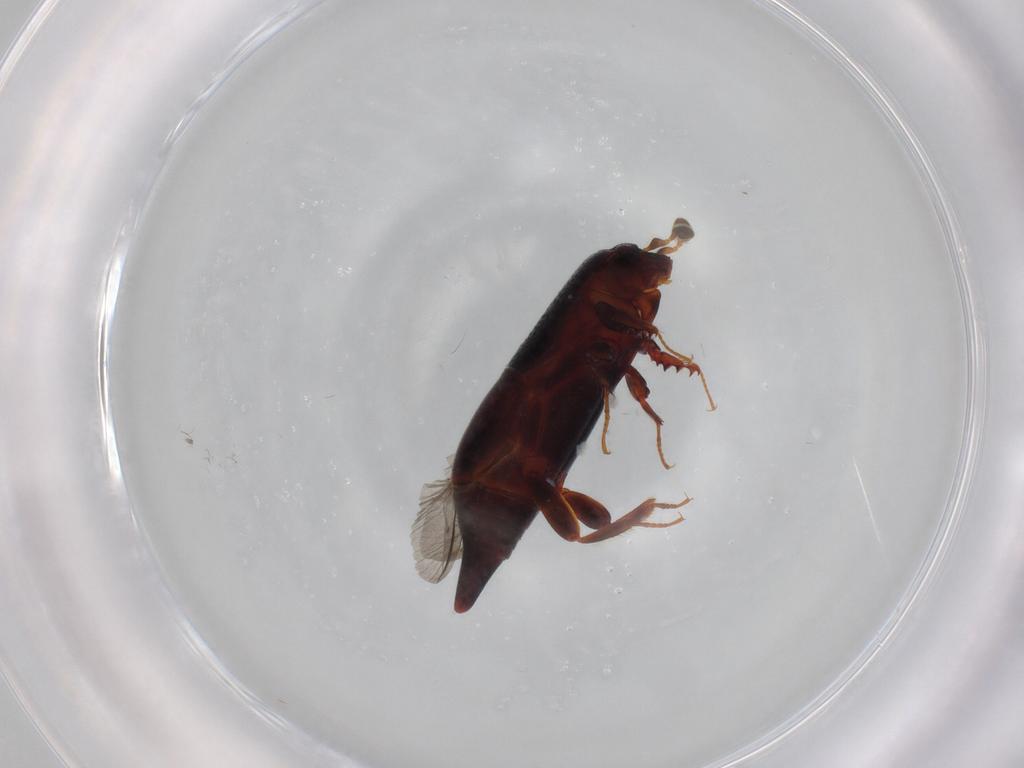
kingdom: Animalia
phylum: Arthropoda
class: Insecta
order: Coleoptera
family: Histeridae
